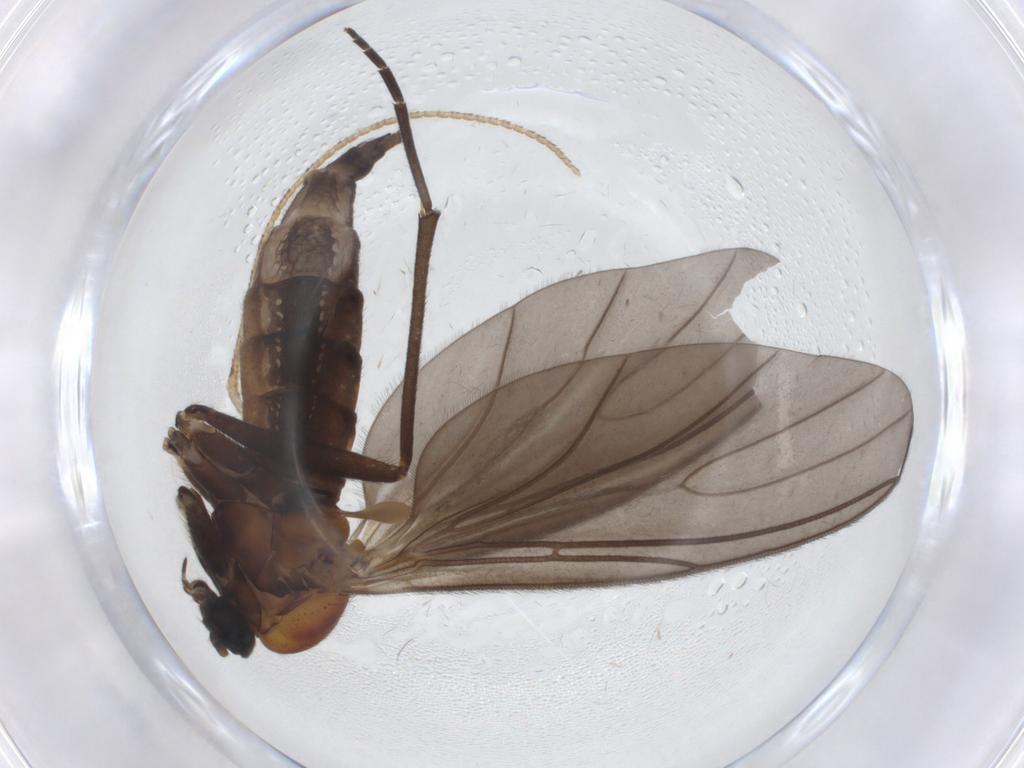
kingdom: Animalia
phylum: Arthropoda
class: Insecta
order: Diptera
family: Sciaridae
